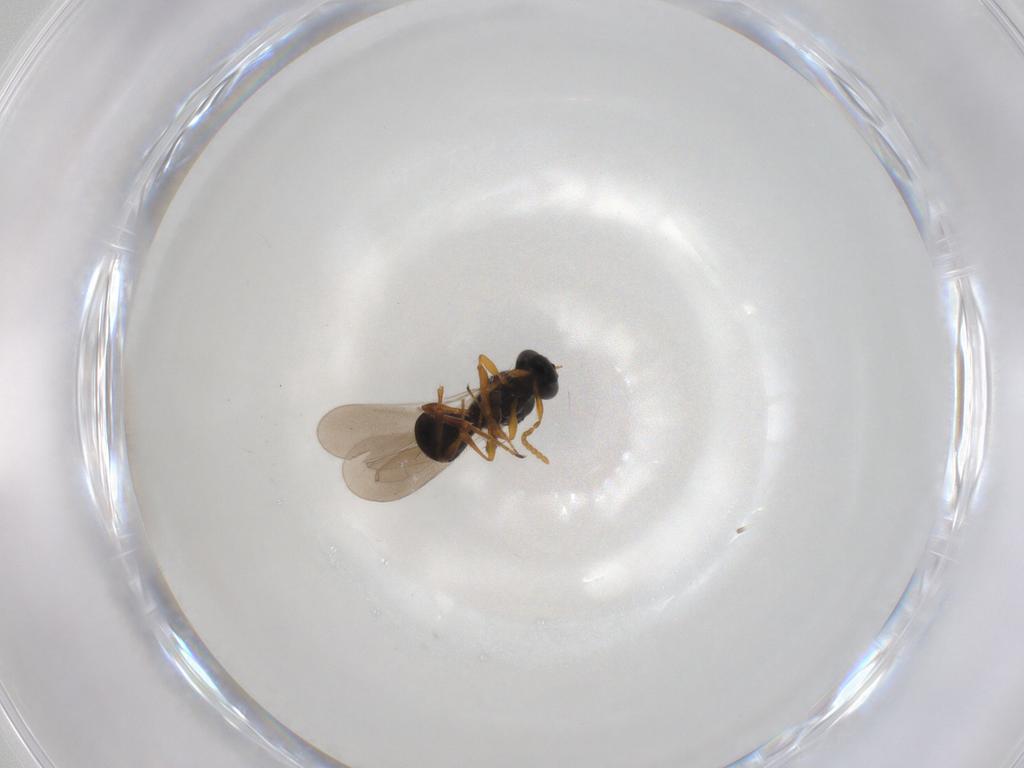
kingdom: Animalia
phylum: Arthropoda
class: Insecta
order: Hymenoptera
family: Platygastridae
